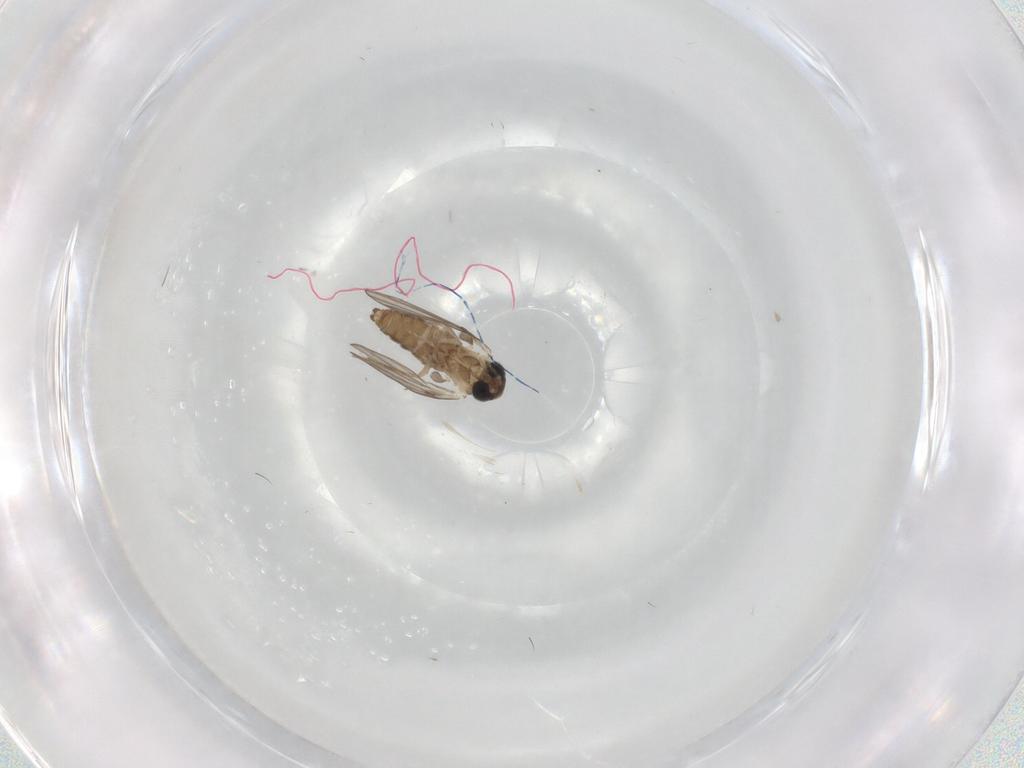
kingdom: Animalia
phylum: Arthropoda
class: Insecta
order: Diptera
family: Psychodidae
